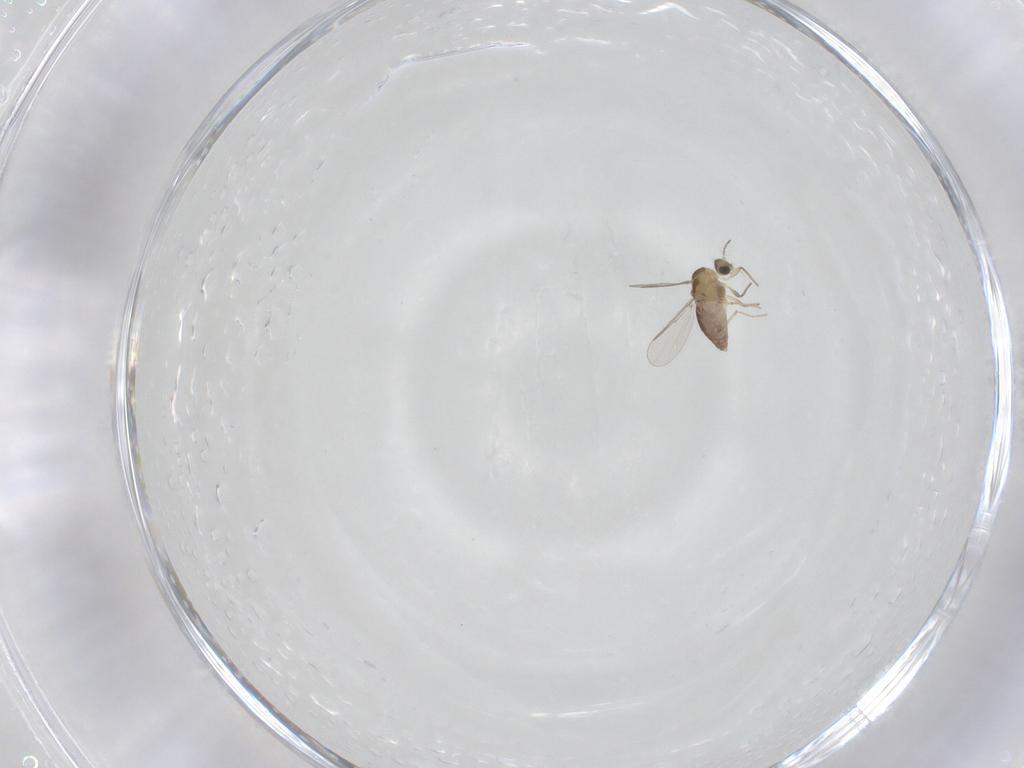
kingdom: Animalia
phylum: Arthropoda
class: Insecta
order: Diptera
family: Chironomidae
